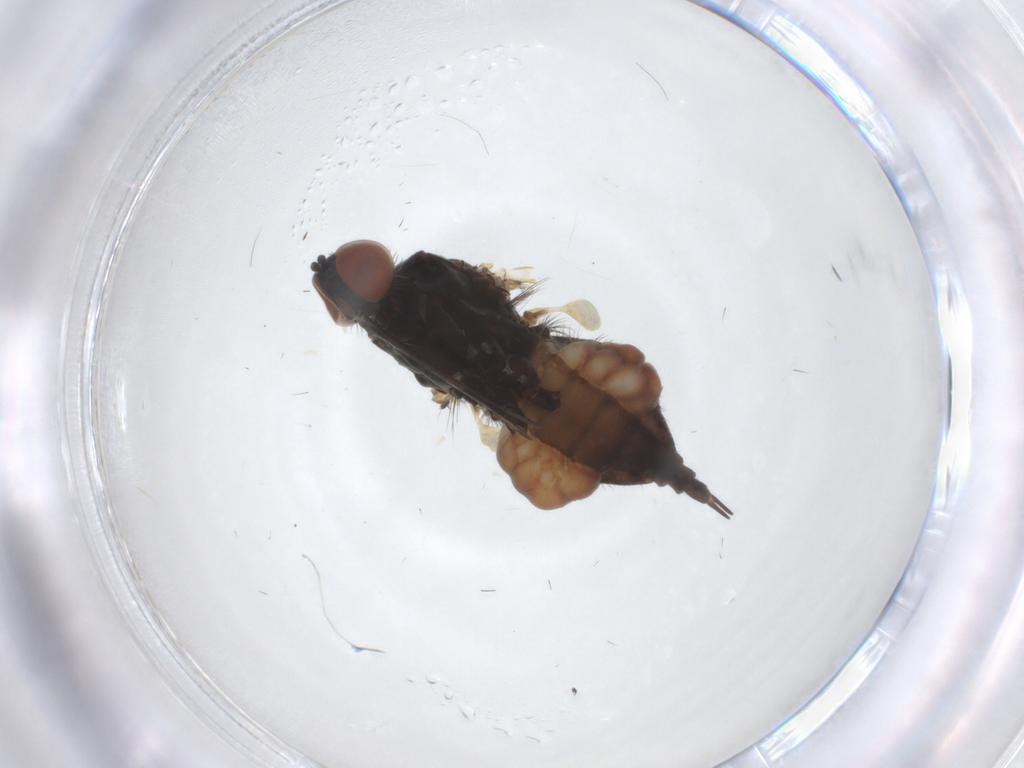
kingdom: Animalia
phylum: Arthropoda
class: Insecta
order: Diptera
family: Empididae
